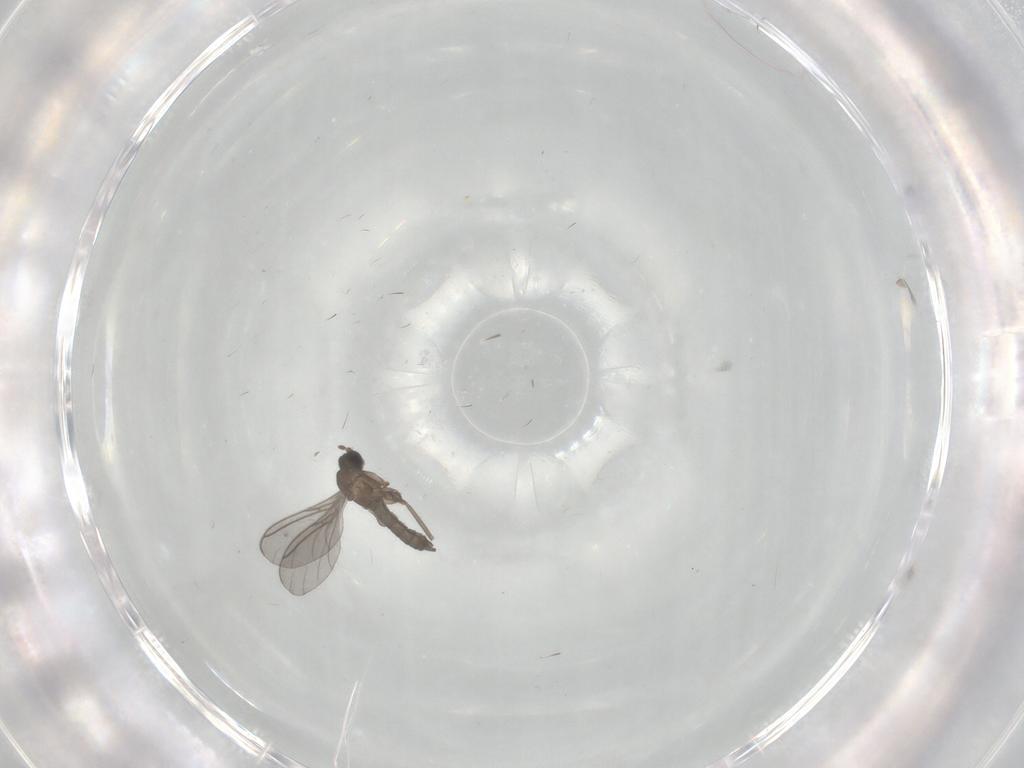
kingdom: Animalia
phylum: Arthropoda
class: Insecta
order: Diptera
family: Sciaridae
